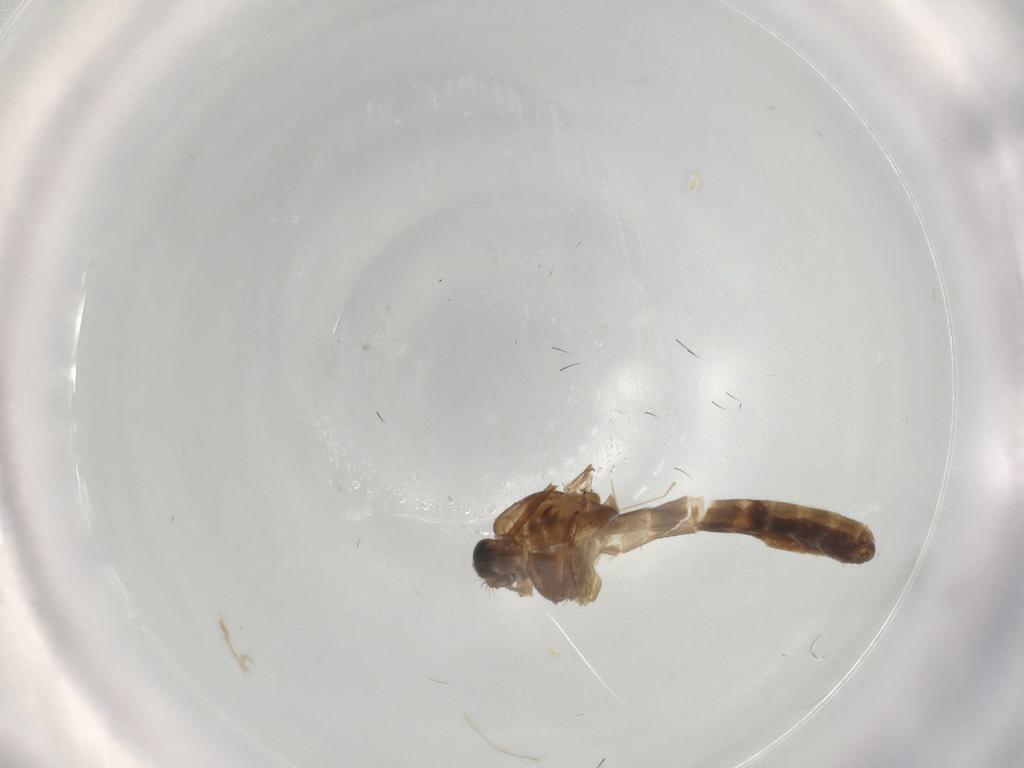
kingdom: Animalia
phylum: Arthropoda
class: Insecta
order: Diptera
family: Chironomidae
